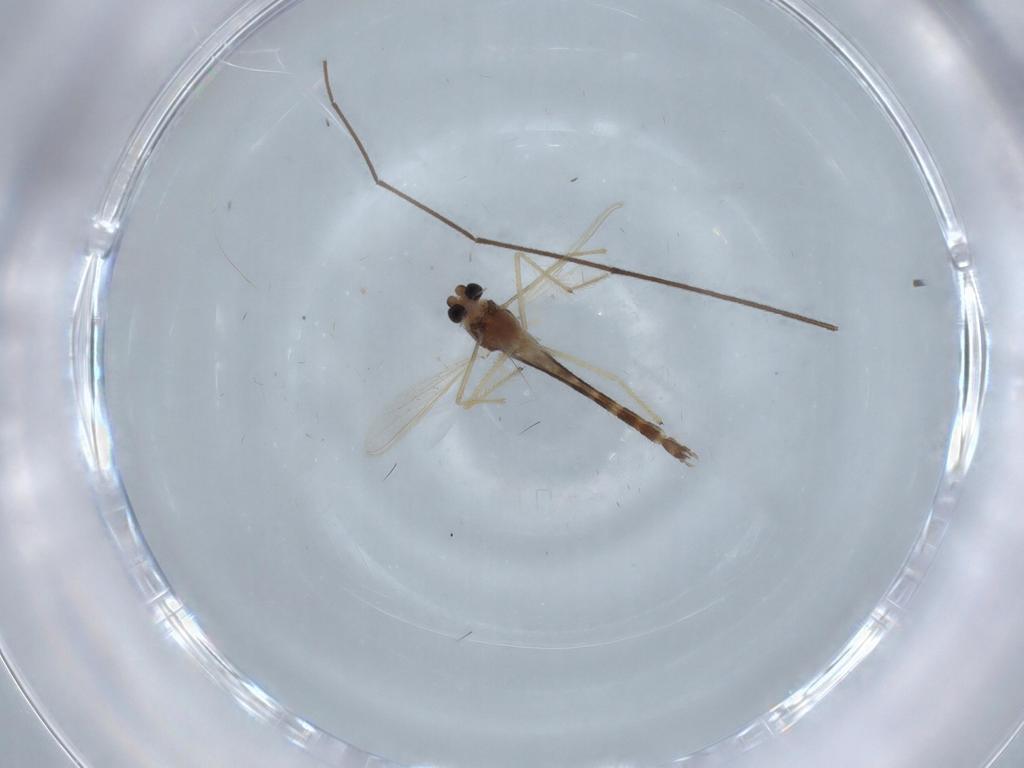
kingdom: Animalia
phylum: Arthropoda
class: Insecta
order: Diptera
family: Chironomidae
